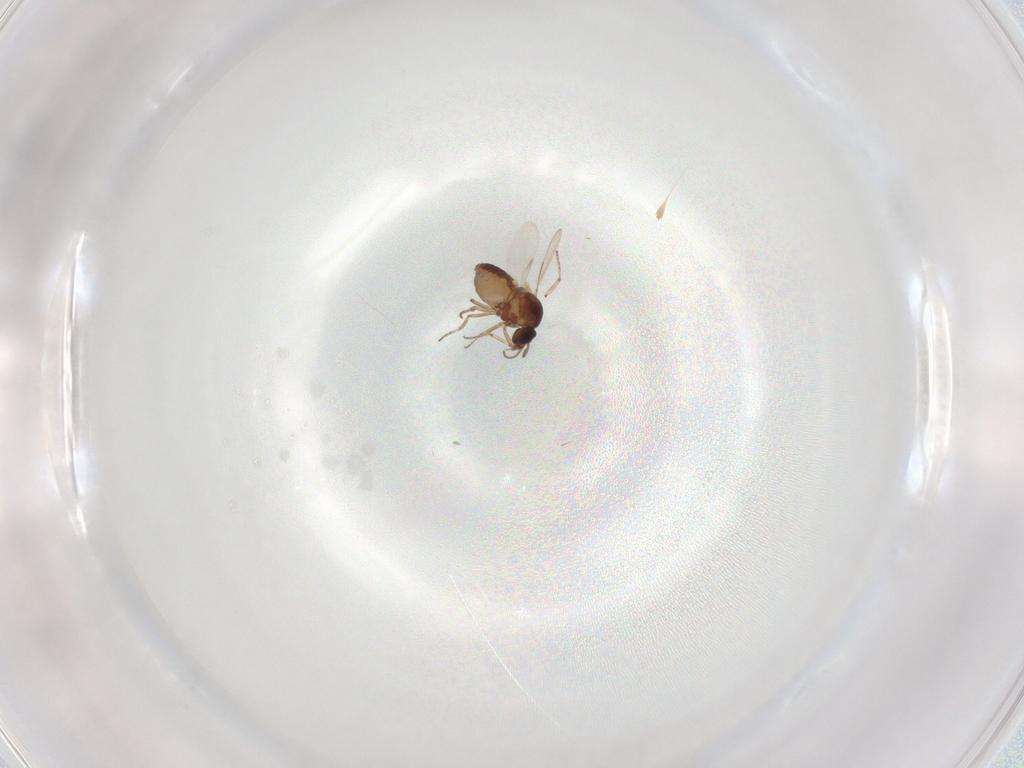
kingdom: Animalia
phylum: Arthropoda
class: Insecta
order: Diptera
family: Ceratopogonidae
